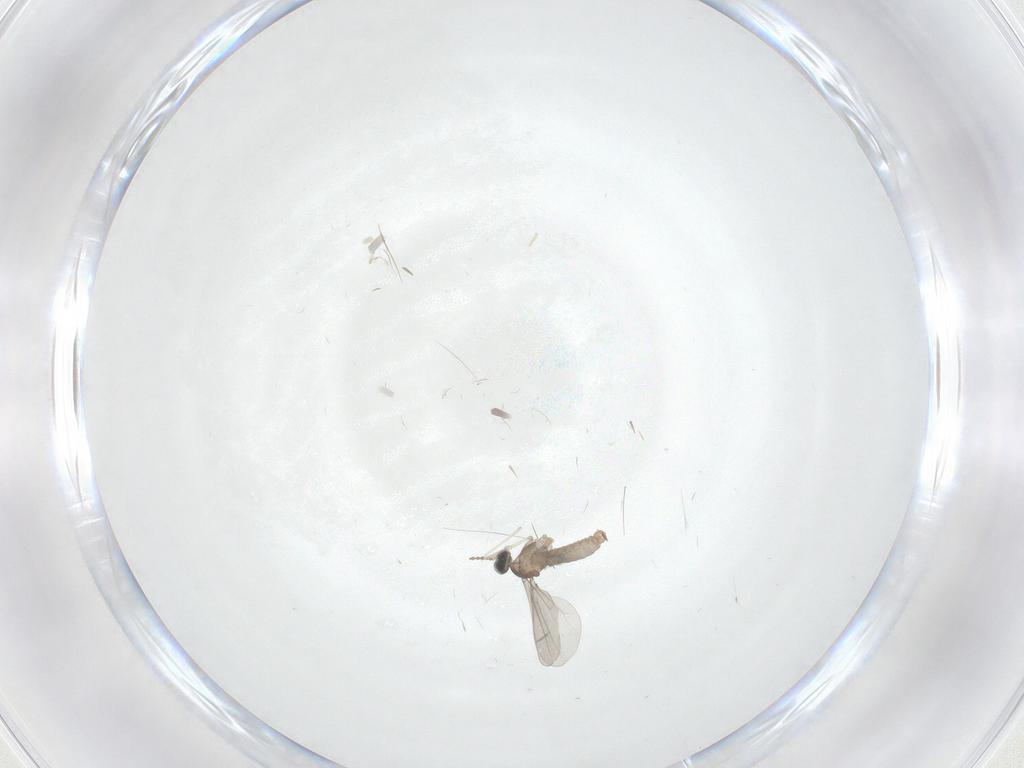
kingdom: Animalia
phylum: Arthropoda
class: Insecta
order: Diptera
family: Cecidomyiidae
